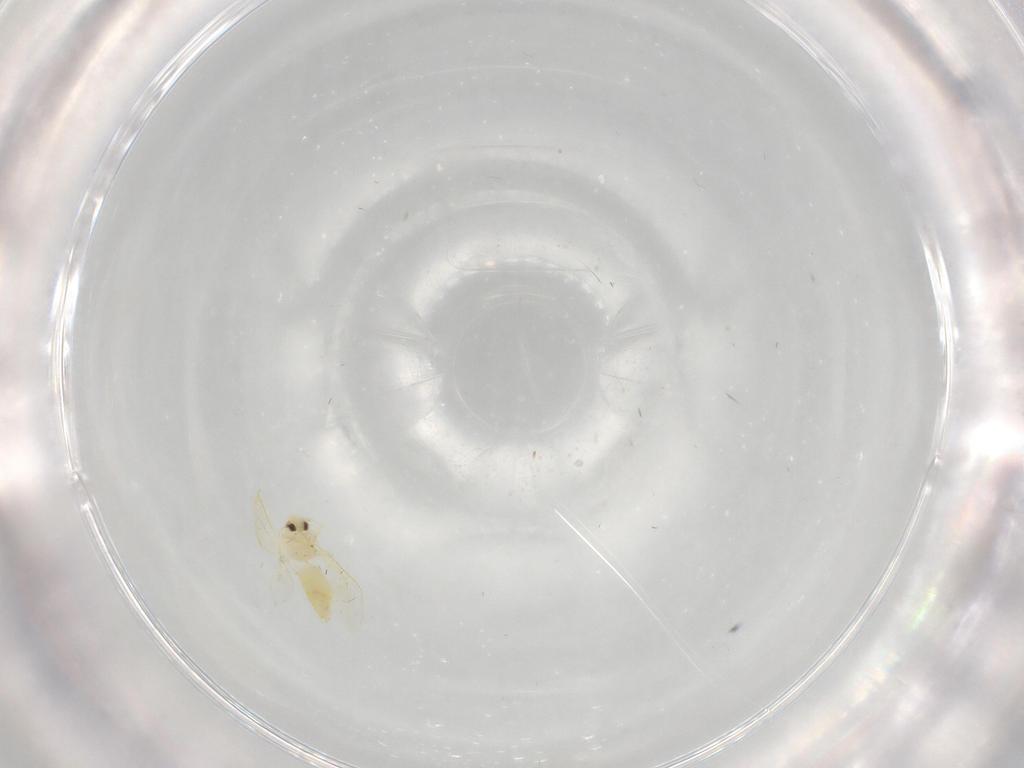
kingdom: Animalia
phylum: Arthropoda
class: Insecta
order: Hemiptera
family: Aleyrodidae
